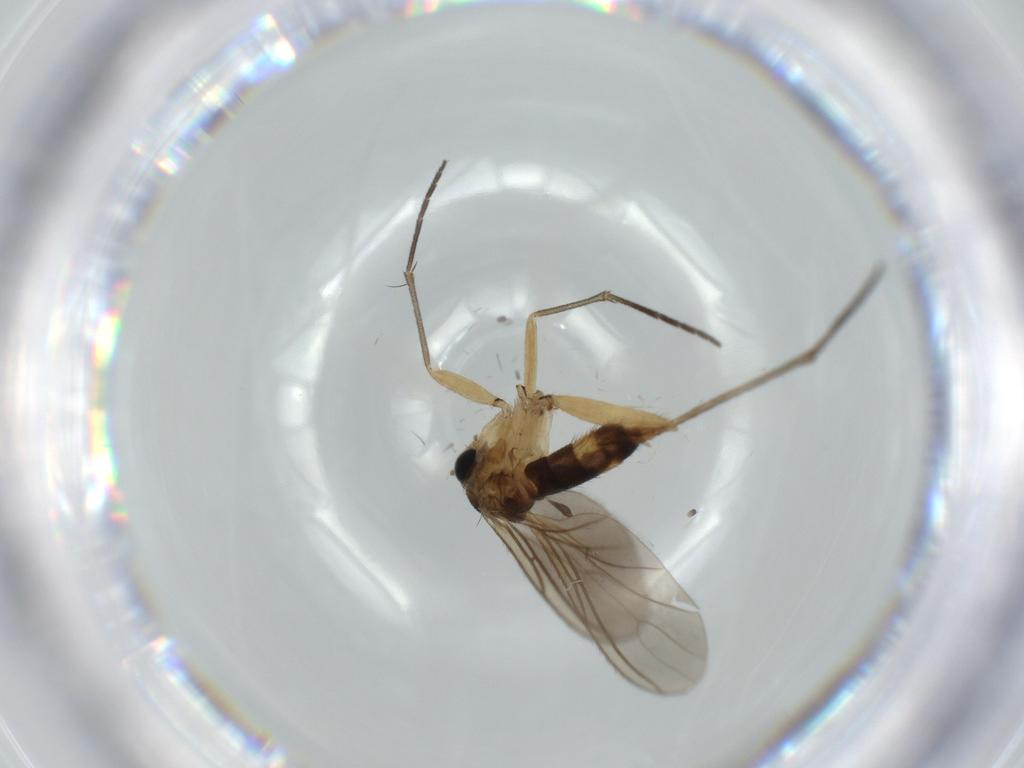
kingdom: Animalia
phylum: Arthropoda
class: Insecta
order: Diptera
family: Sciaridae
